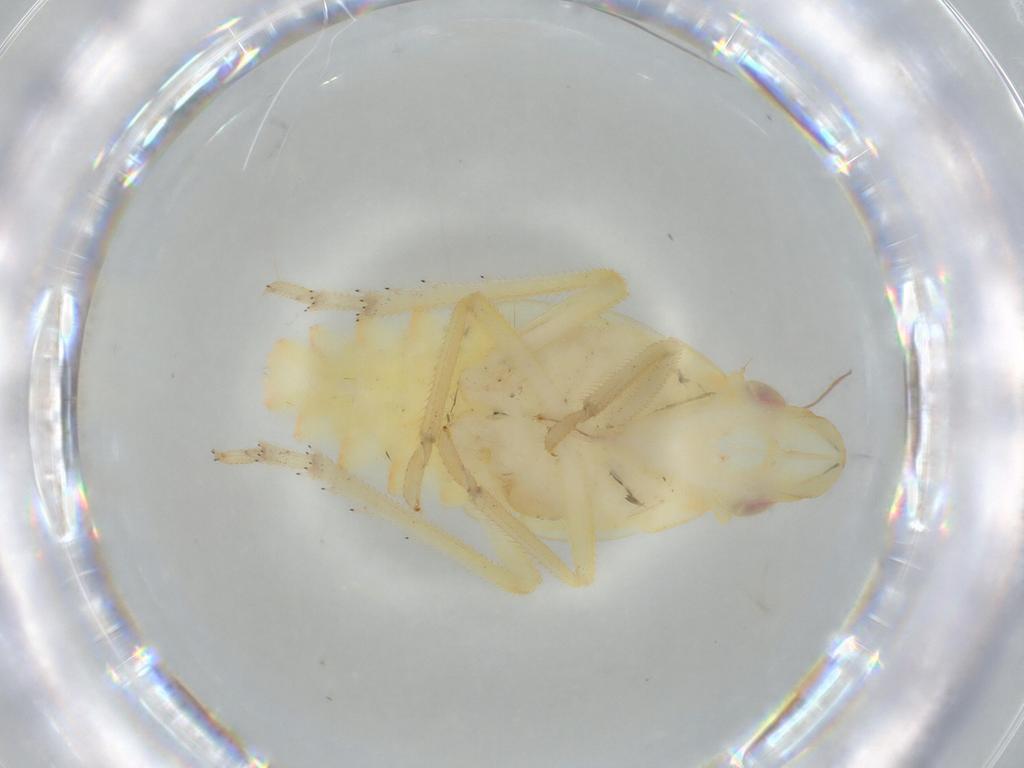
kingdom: Animalia
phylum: Arthropoda
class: Insecta
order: Hemiptera
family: Tropiduchidae
